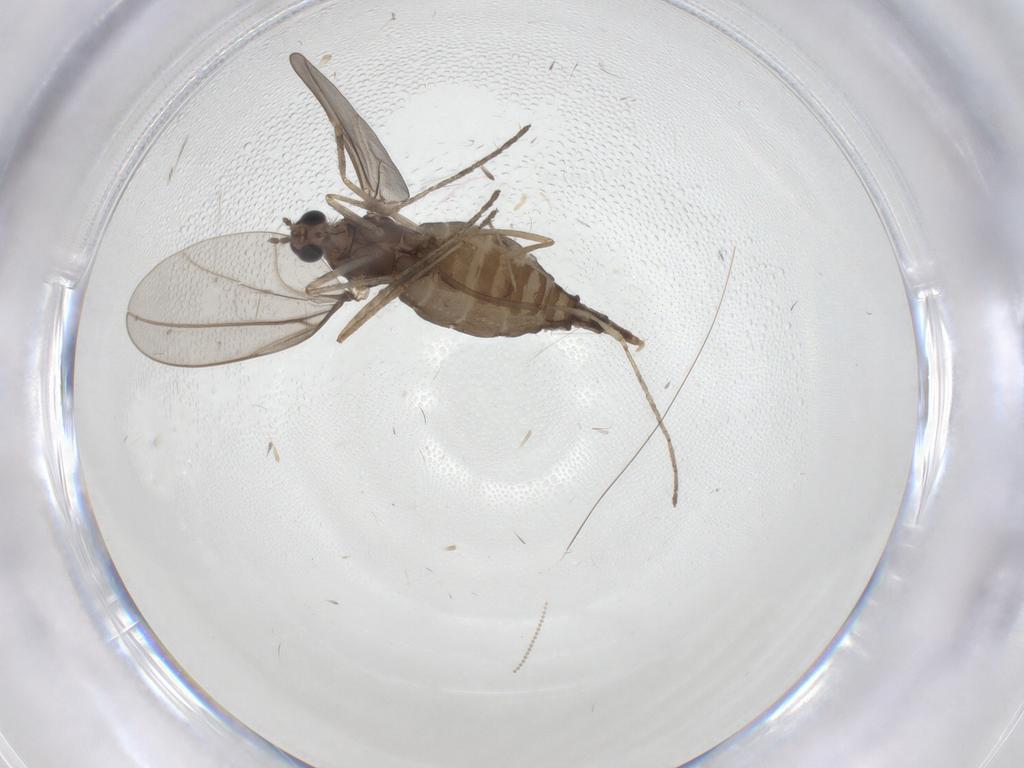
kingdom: Animalia
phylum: Arthropoda
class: Insecta
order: Diptera
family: Cecidomyiidae
